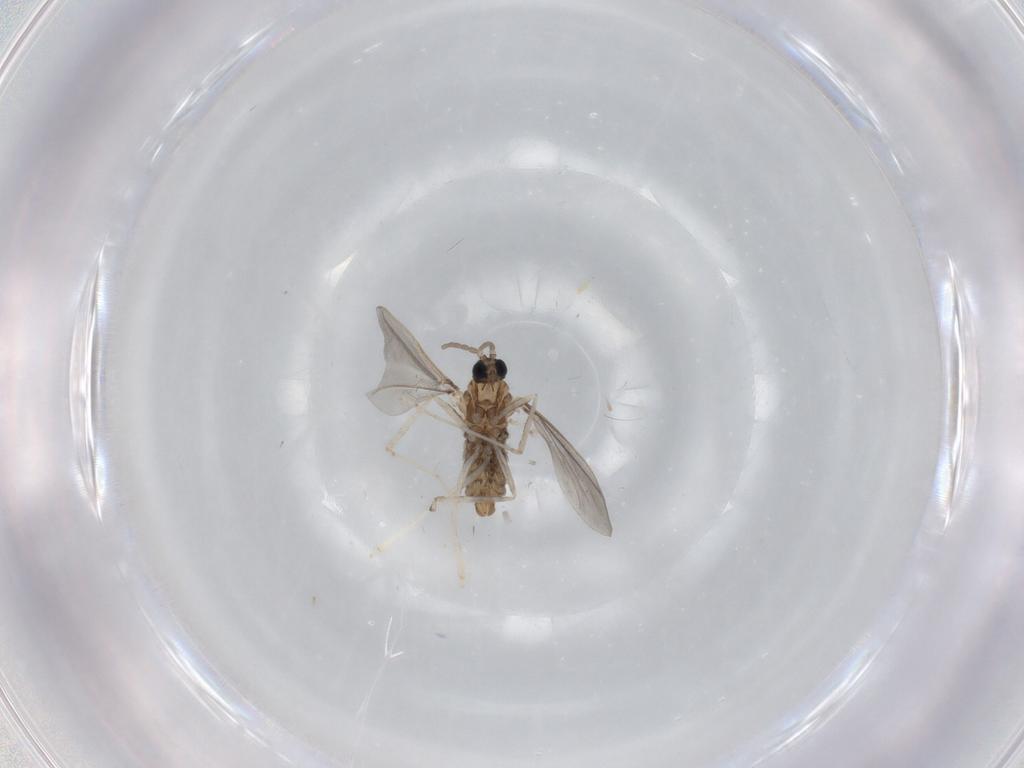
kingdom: Animalia
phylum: Arthropoda
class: Insecta
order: Diptera
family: Cecidomyiidae
